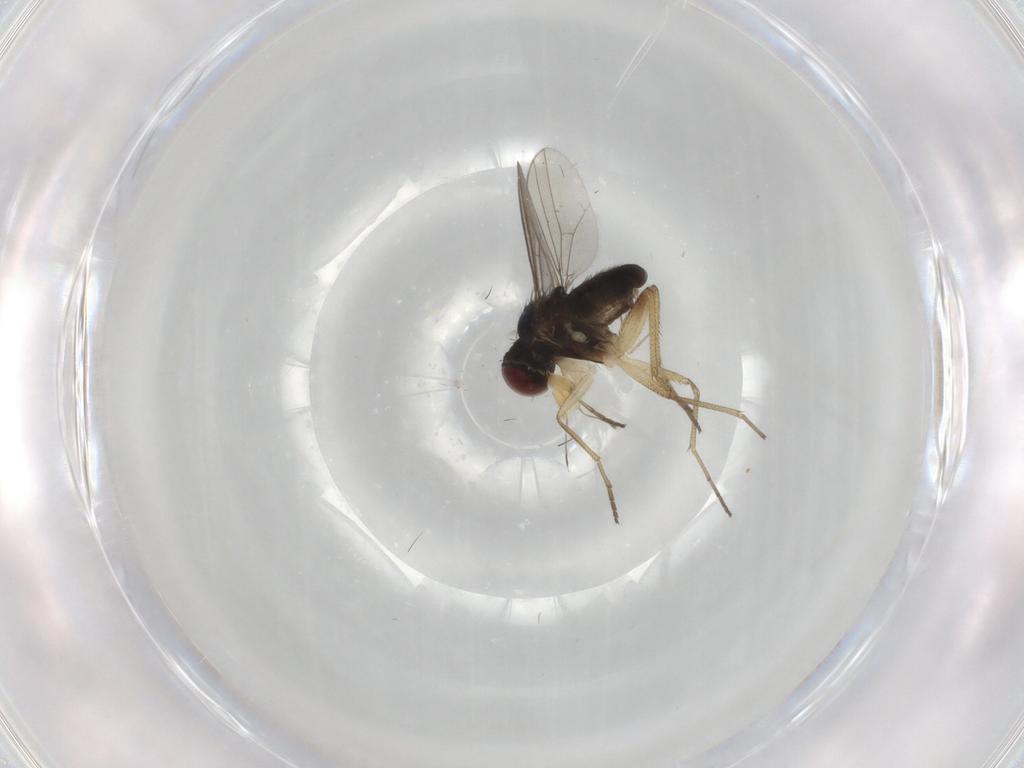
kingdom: Animalia
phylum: Arthropoda
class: Insecta
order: Diptera
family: Dolichopodidae
